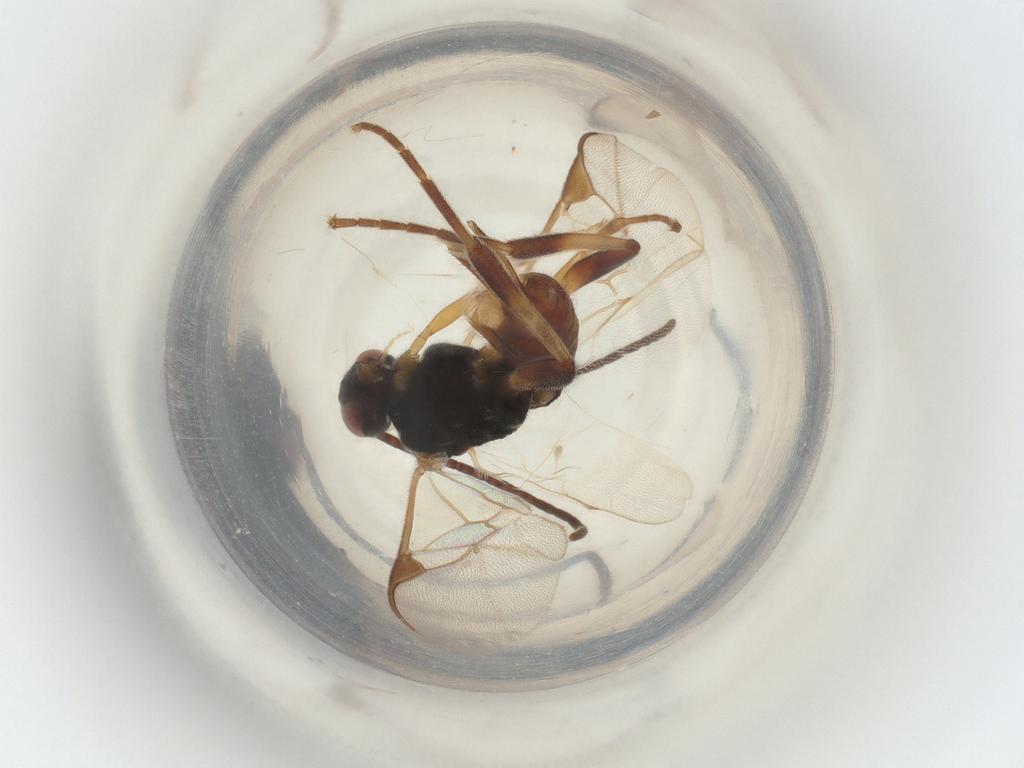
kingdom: Animalia
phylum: Arthropoda
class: Insecta
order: Hymenoptera
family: Braconidae
